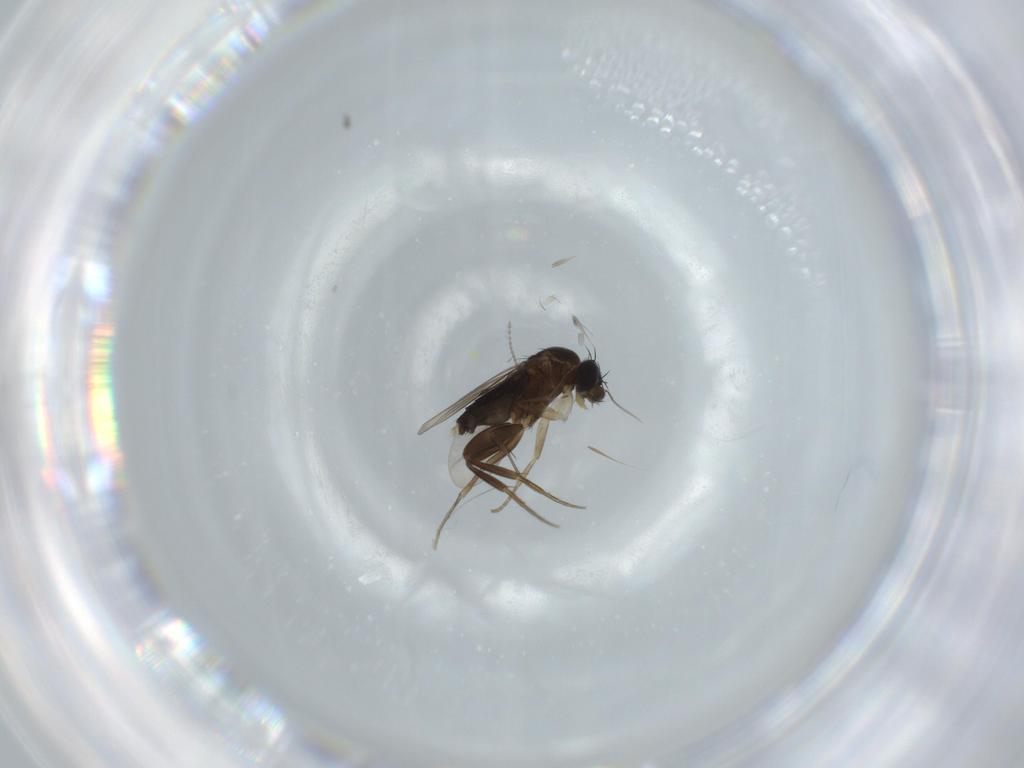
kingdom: Animalia
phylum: Arthropoda
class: Insecta
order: Diptera
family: Phoridae
